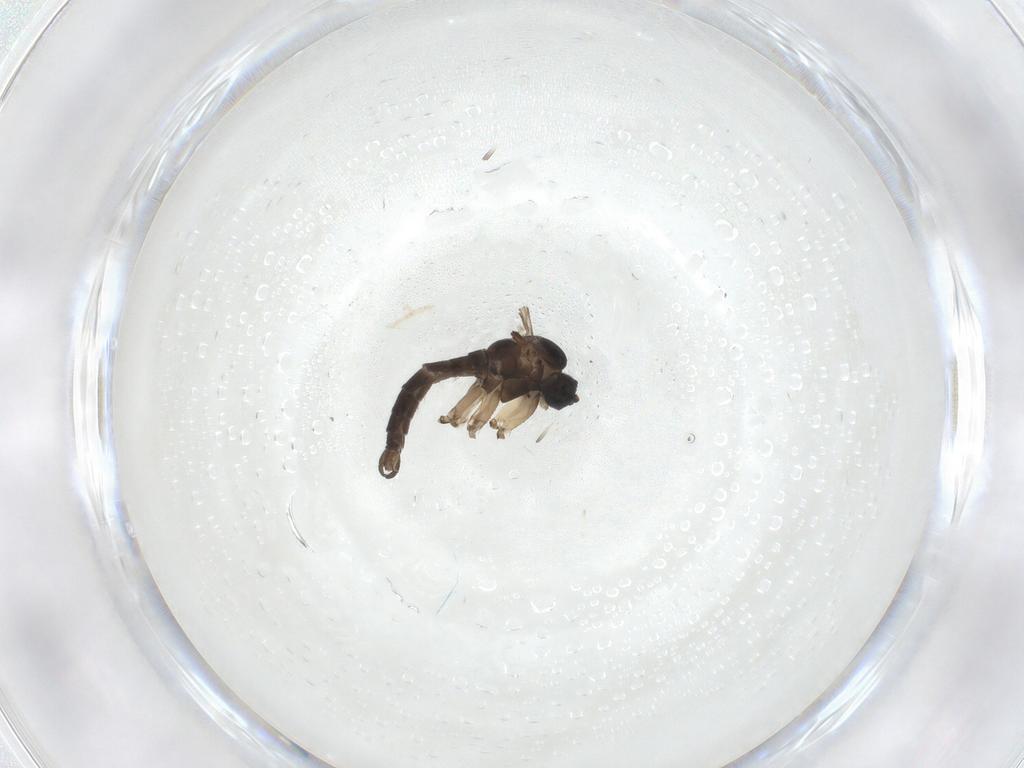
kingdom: Animalia
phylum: Arthropoda
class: Insecta
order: Diptera
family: Sciaridae
